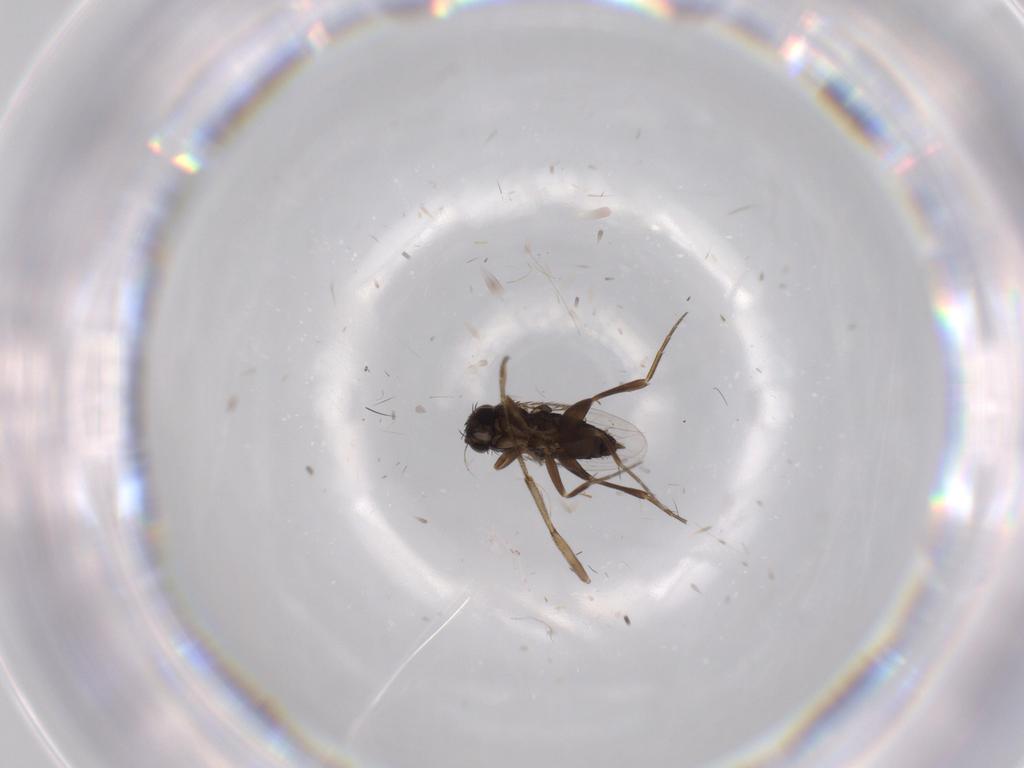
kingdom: Animalia
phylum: Arthropoda
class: Insecta
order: Diptera
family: Phoridae
